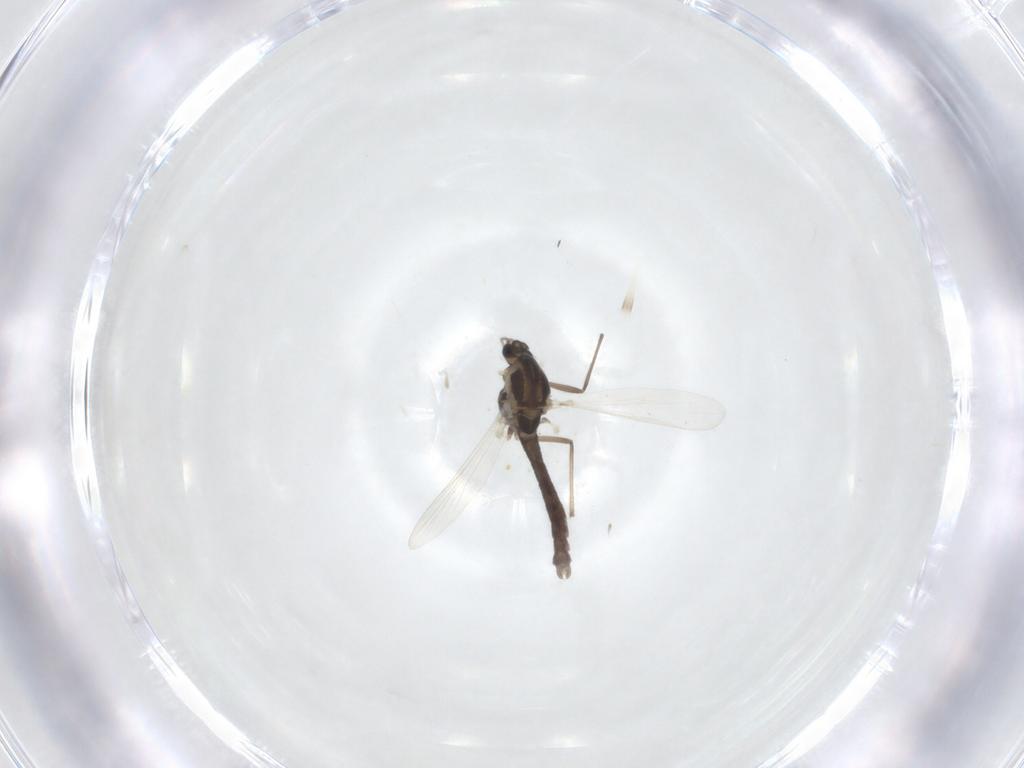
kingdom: Animalia
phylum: Arthropoda
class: Insecta
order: Diptera
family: Chironomidae
